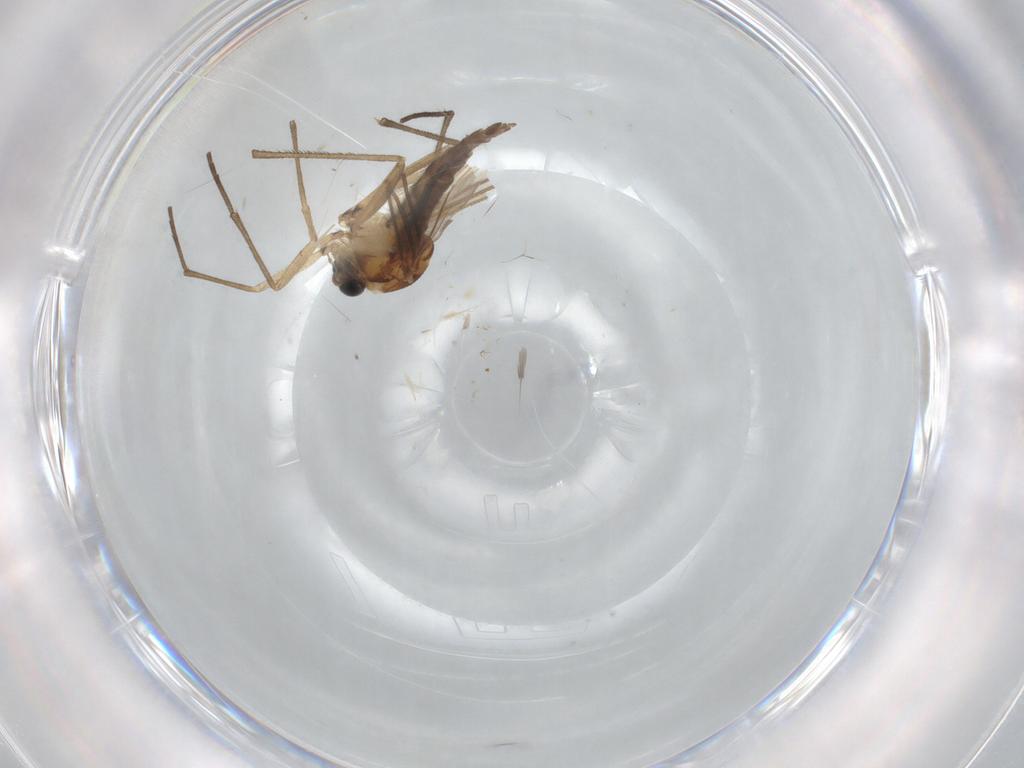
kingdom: Animalia
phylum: Arthropoda
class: Insecta
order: Diptera
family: Sciaridae
